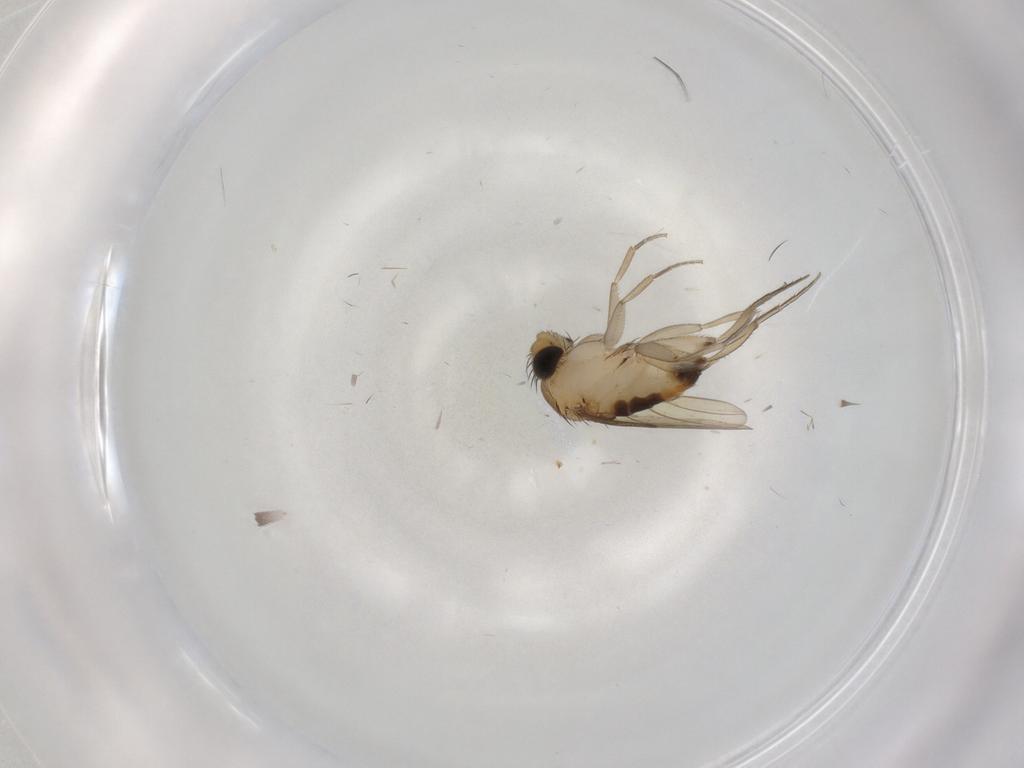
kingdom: Animalia
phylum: Arthropoda
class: Insecta
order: Diptera
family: Phoridae
